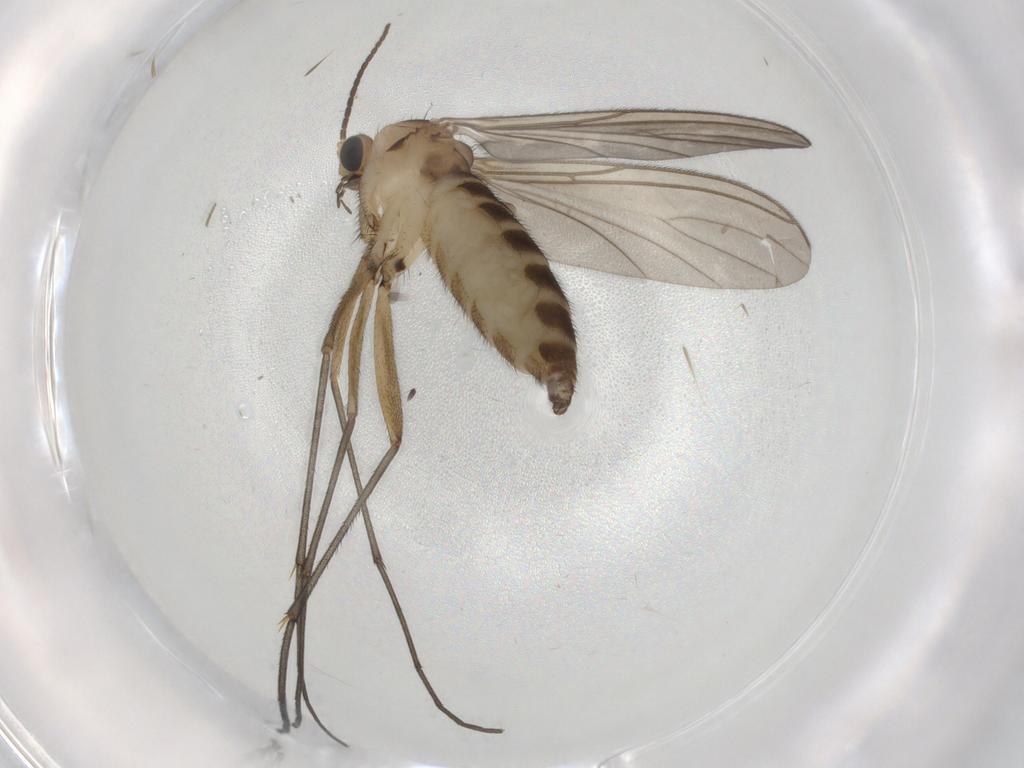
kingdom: Animalia
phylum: Arthropoda
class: Insecta
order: Diptera
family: Sciaridae
